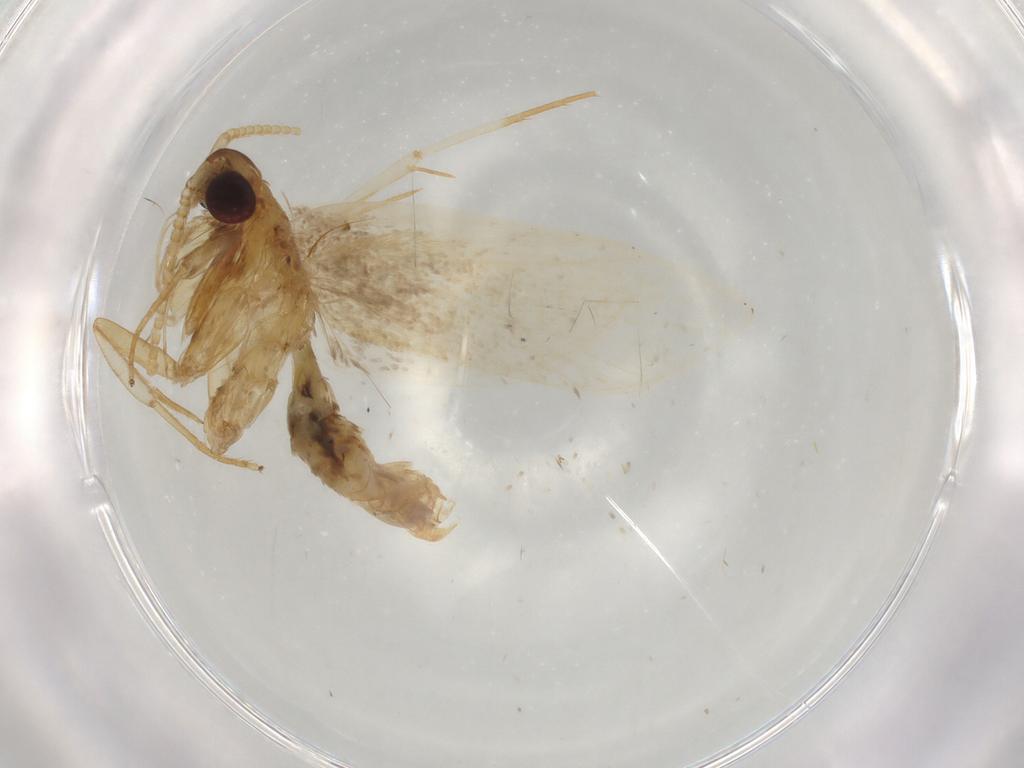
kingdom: Animalia
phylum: Arthropoda
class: Insecta
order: Lepidoptera
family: Lecithoceridae
